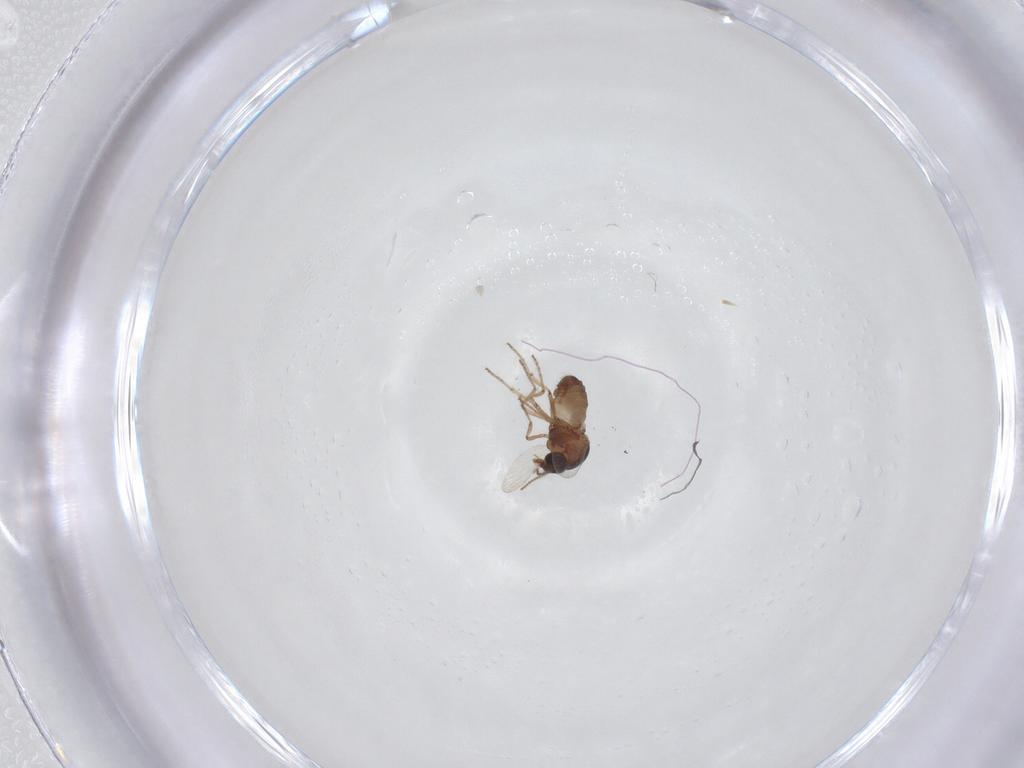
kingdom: Animalia
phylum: Arthropoda
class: Insecta
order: Diptera
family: Ceratopogonidae
